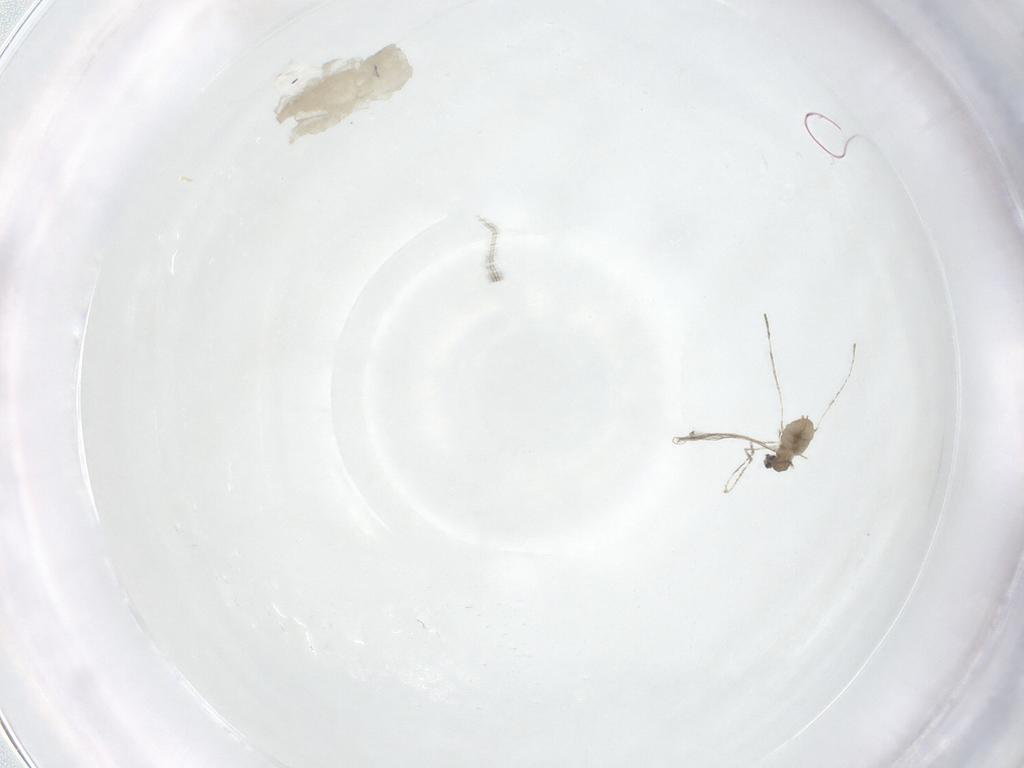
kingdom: Animalia
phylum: Arthropoda
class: Insecta
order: Diptera
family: Cecidomyiidae
